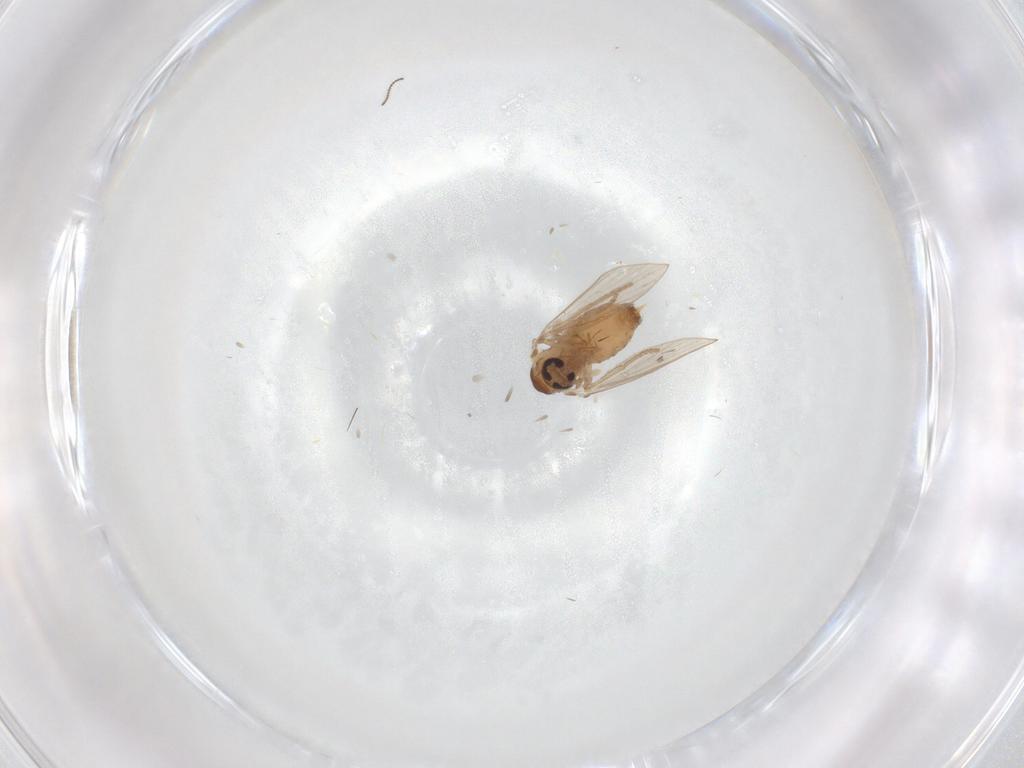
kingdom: Animalia
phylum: Arthropoda
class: Insecta
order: Diptera
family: Psychodidae
